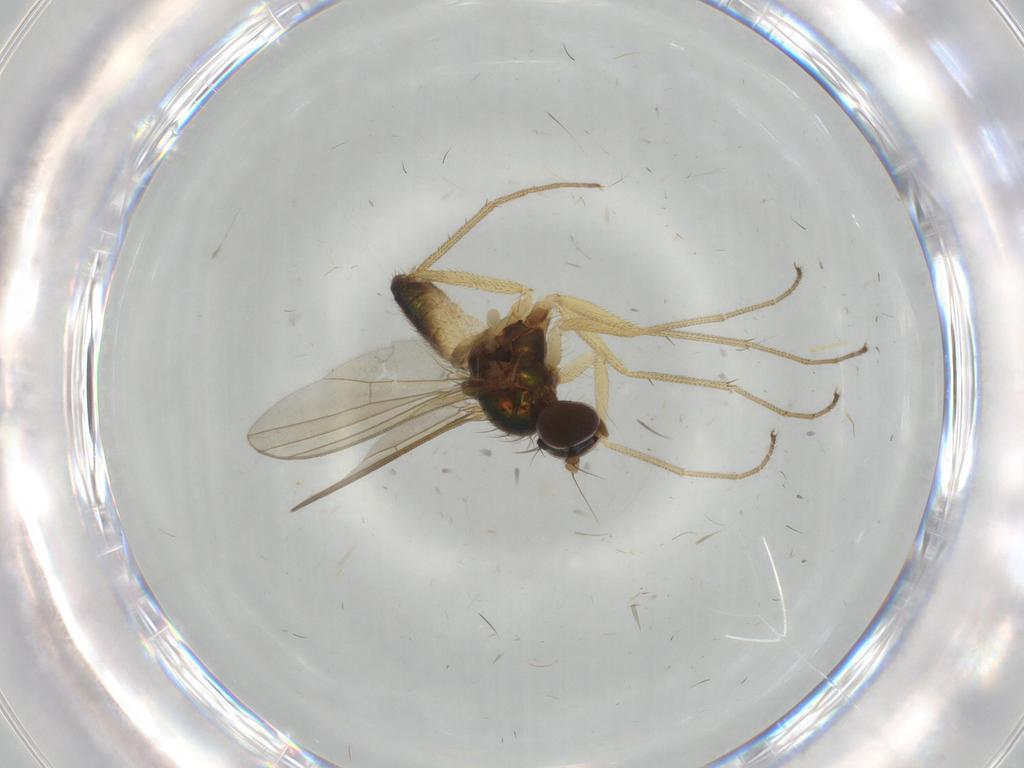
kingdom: Animalia
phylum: Arthropoda
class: Insecta
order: Diptera
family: Dolichopodidae
